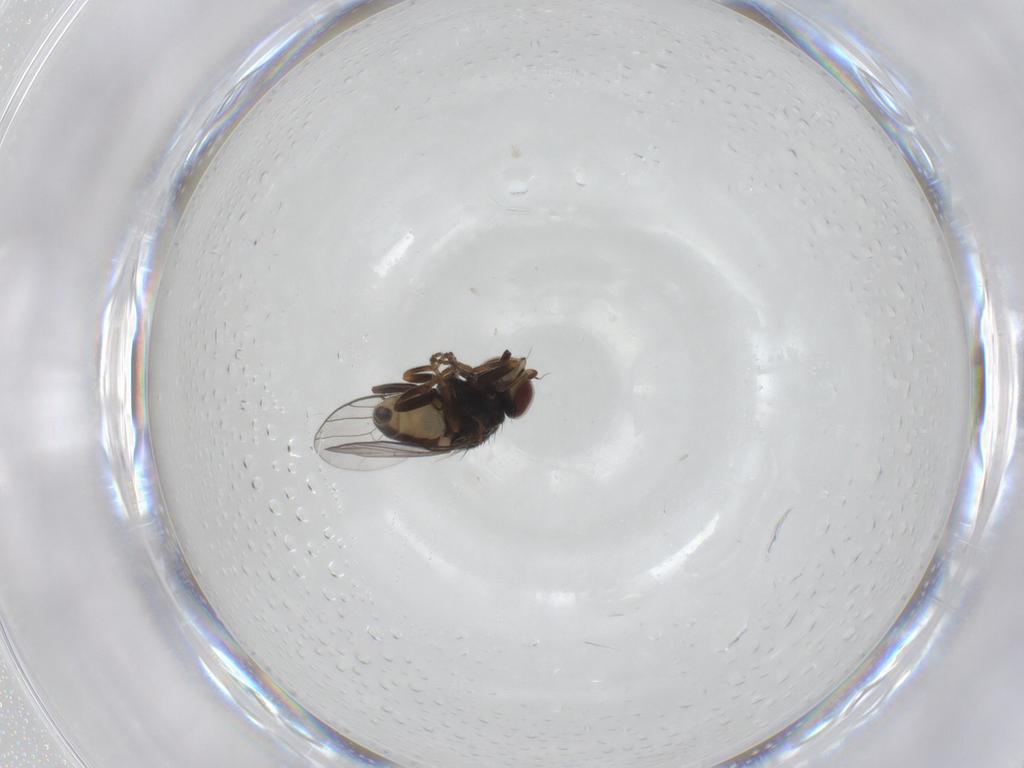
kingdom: Animalia
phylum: Arthropoda
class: Insecta
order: Diptera
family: Chloropidae
